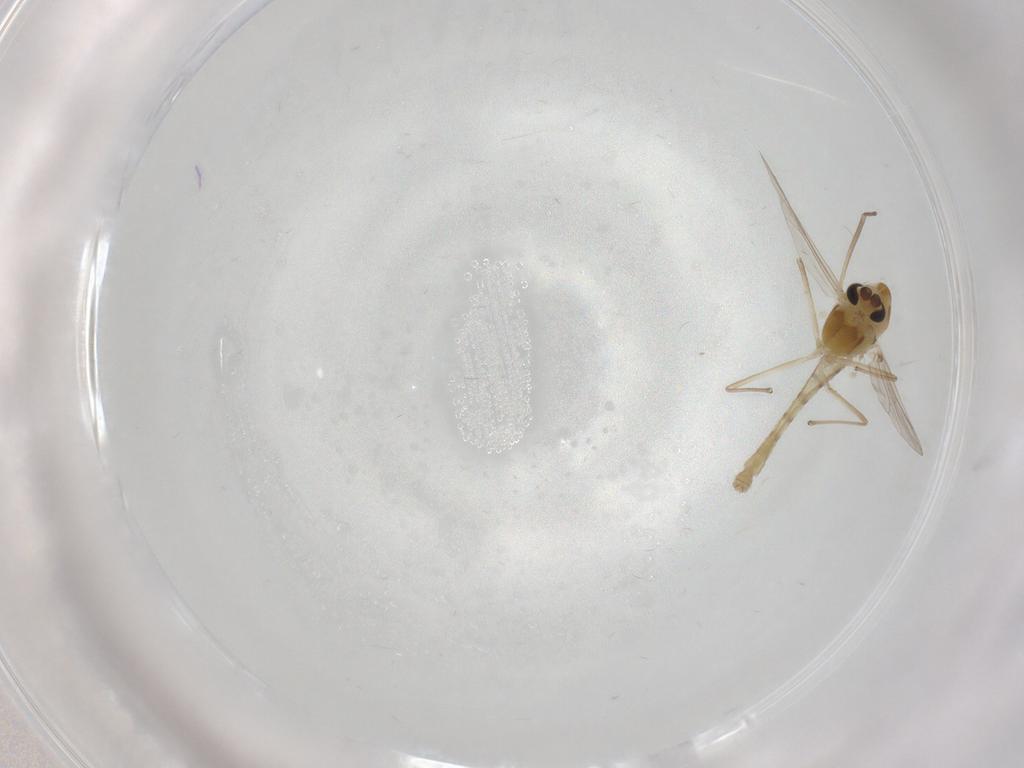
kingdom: Animalia
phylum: Arthropoda
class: Insecta
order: Diptera
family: Chironomidae
